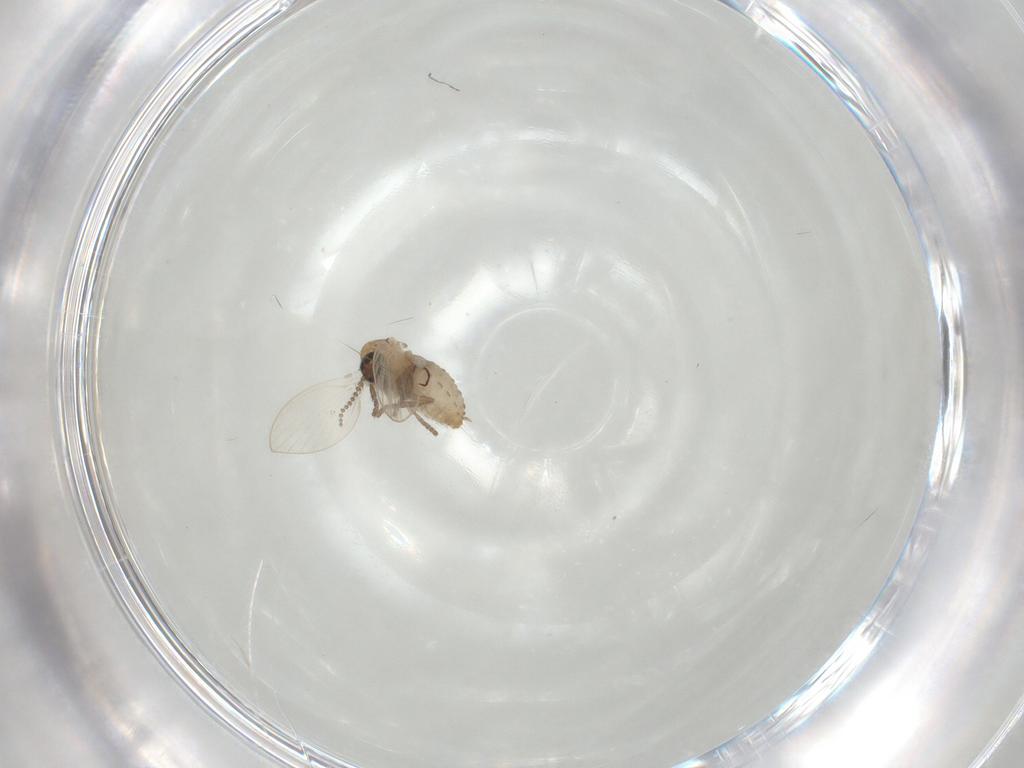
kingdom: Animalia
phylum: Arthropoda
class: Insecta
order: Diptera
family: Psychodidae
